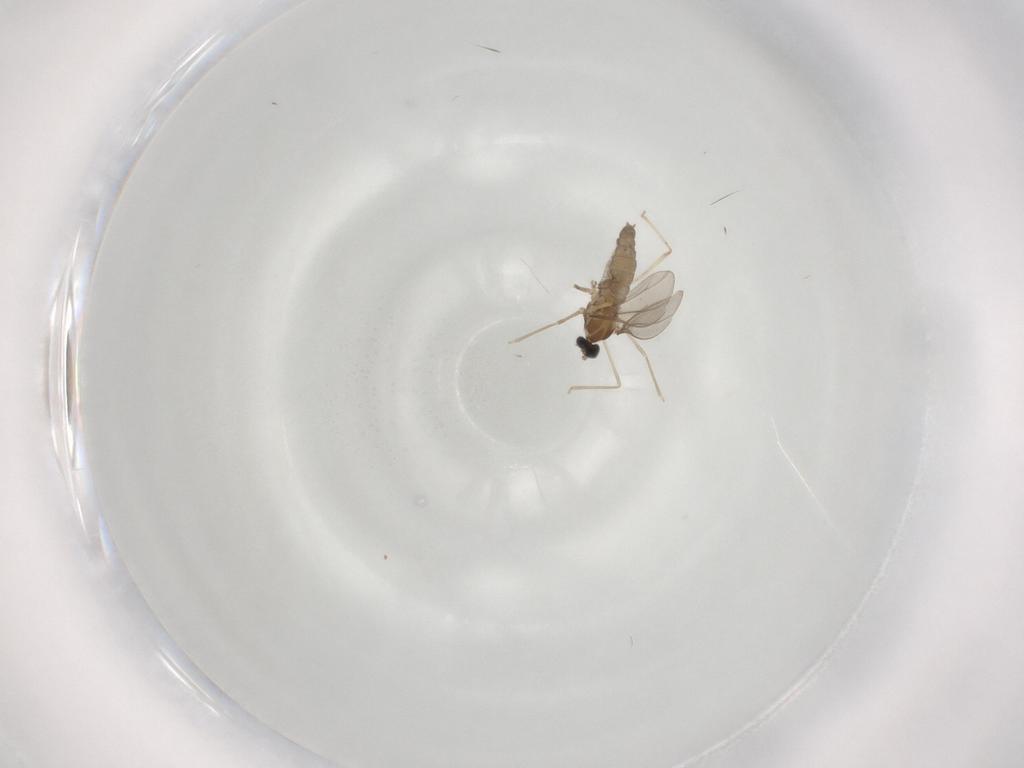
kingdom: Animalia
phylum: Arthropoda
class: Insecta
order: Diptera
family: Cecidomyiidae
